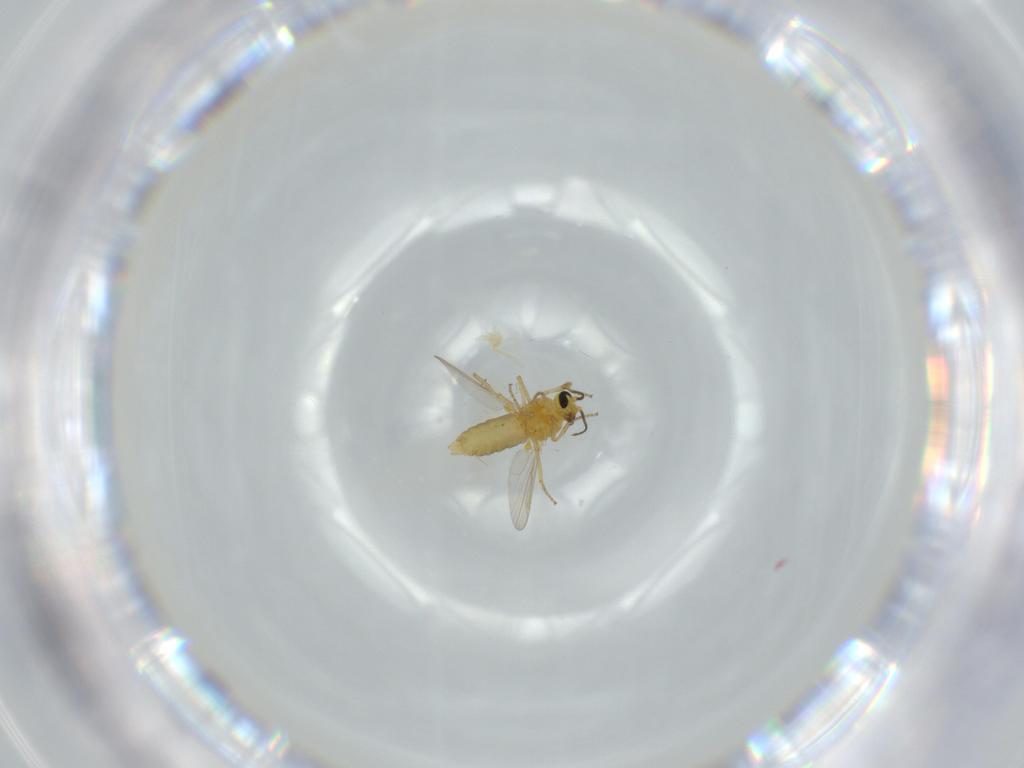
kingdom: Animalia
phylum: Arthropoda
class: Insecta
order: Diptera
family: Ceratopogonidae
